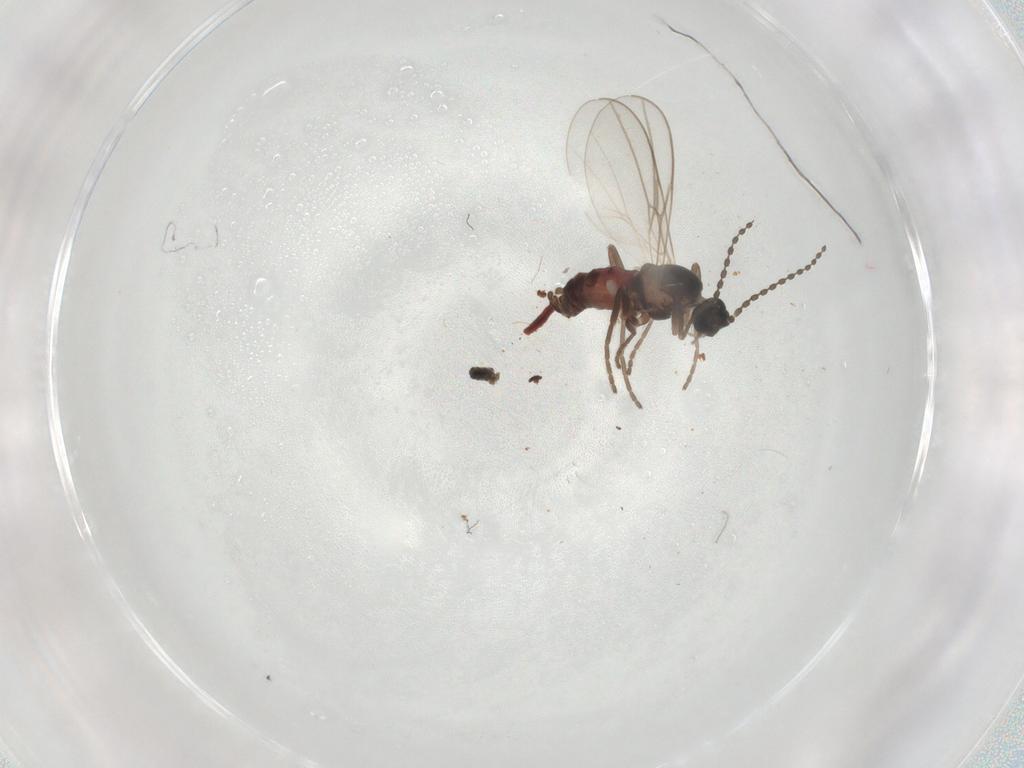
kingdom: Animalia
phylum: Arthropoda
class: Insecta
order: Diptera
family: Cecidomyiidae
